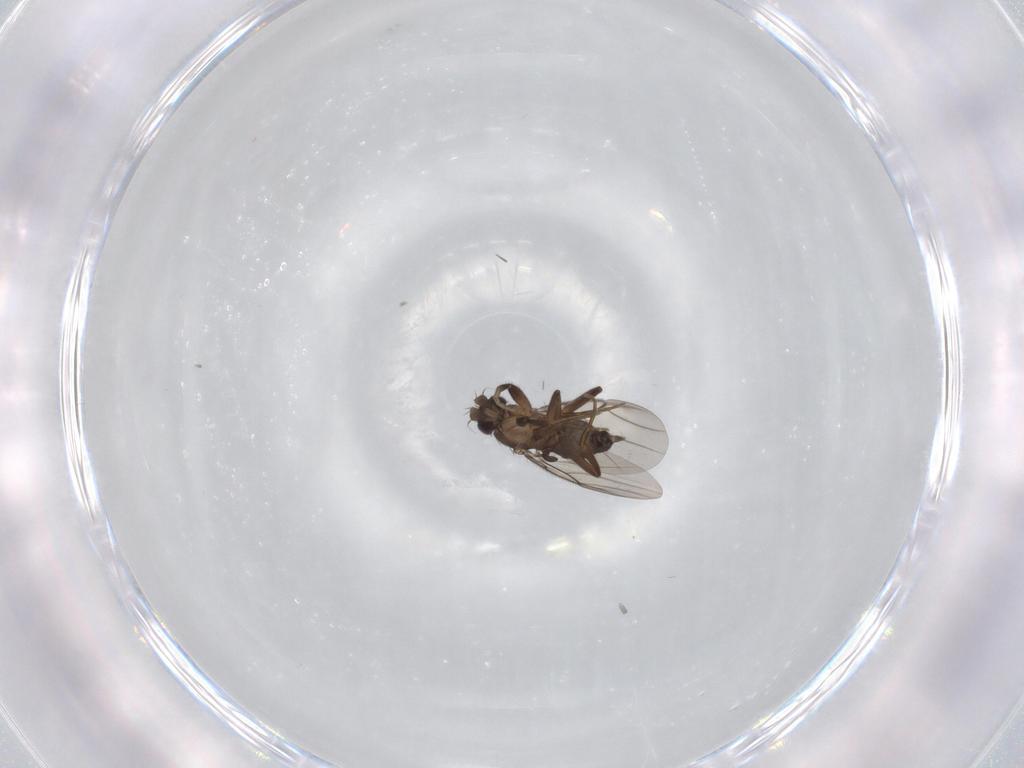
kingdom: Animalia
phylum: Arthropoda
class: Insecta
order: Diptera
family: Phoridae
